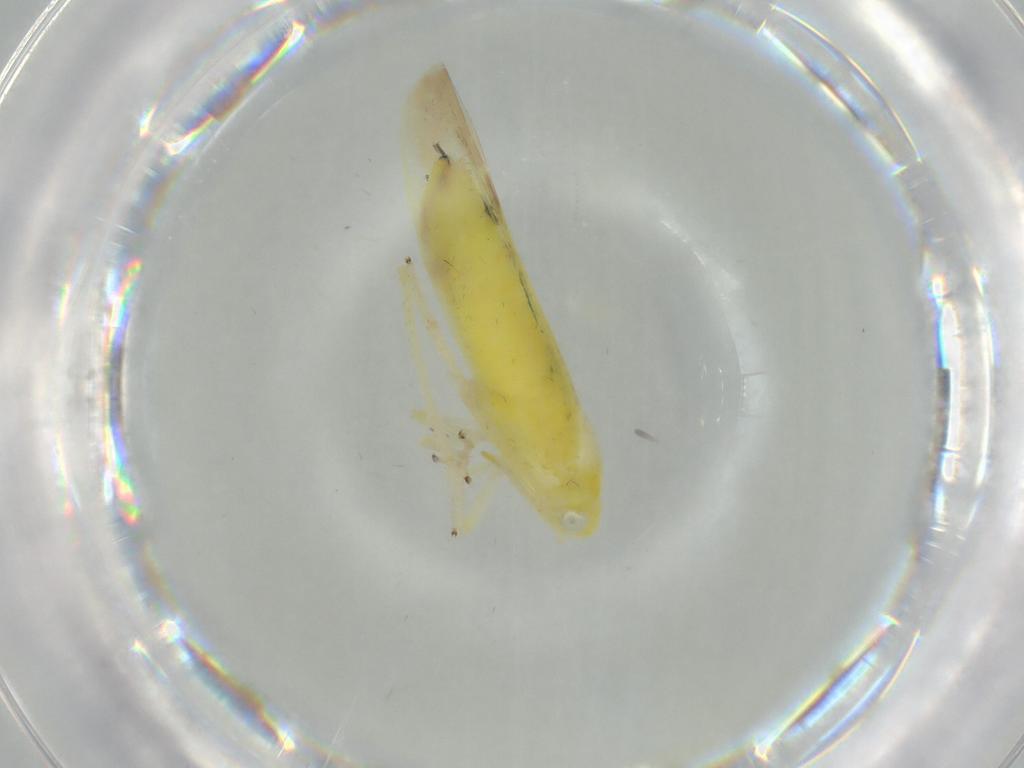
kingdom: Animalia
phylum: Arthropoda
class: Insecta
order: Hemiptera
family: Cicadellidae
